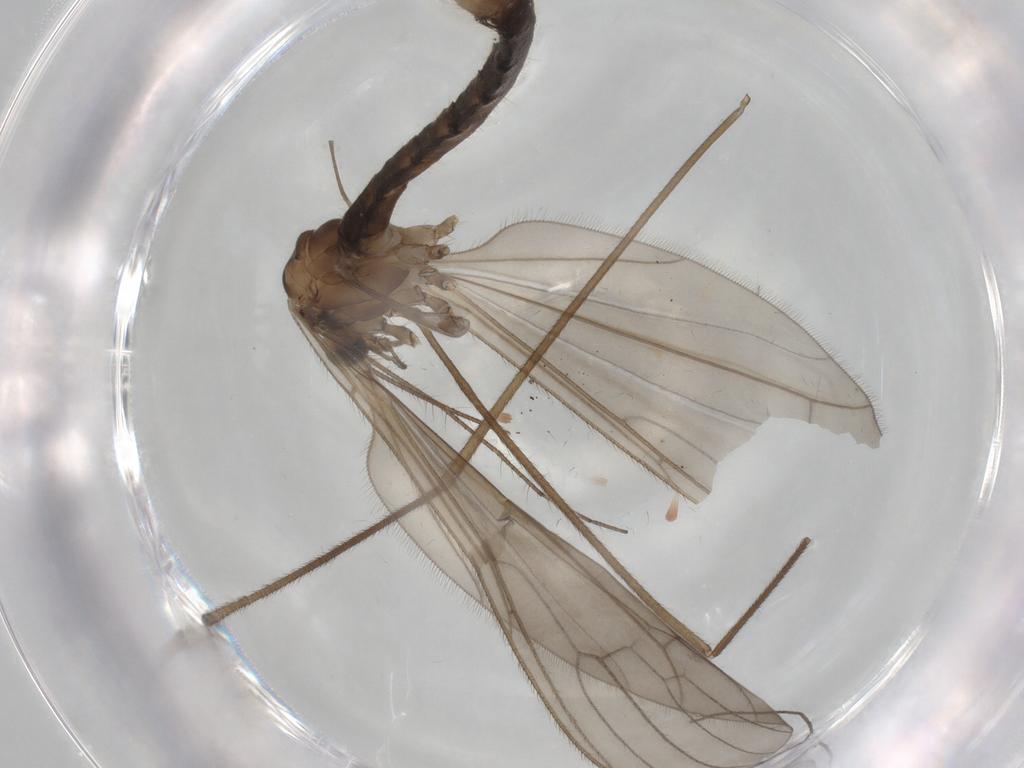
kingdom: Animalia
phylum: Arthropoda
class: Insecta
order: Diptera
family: Limoniidae
